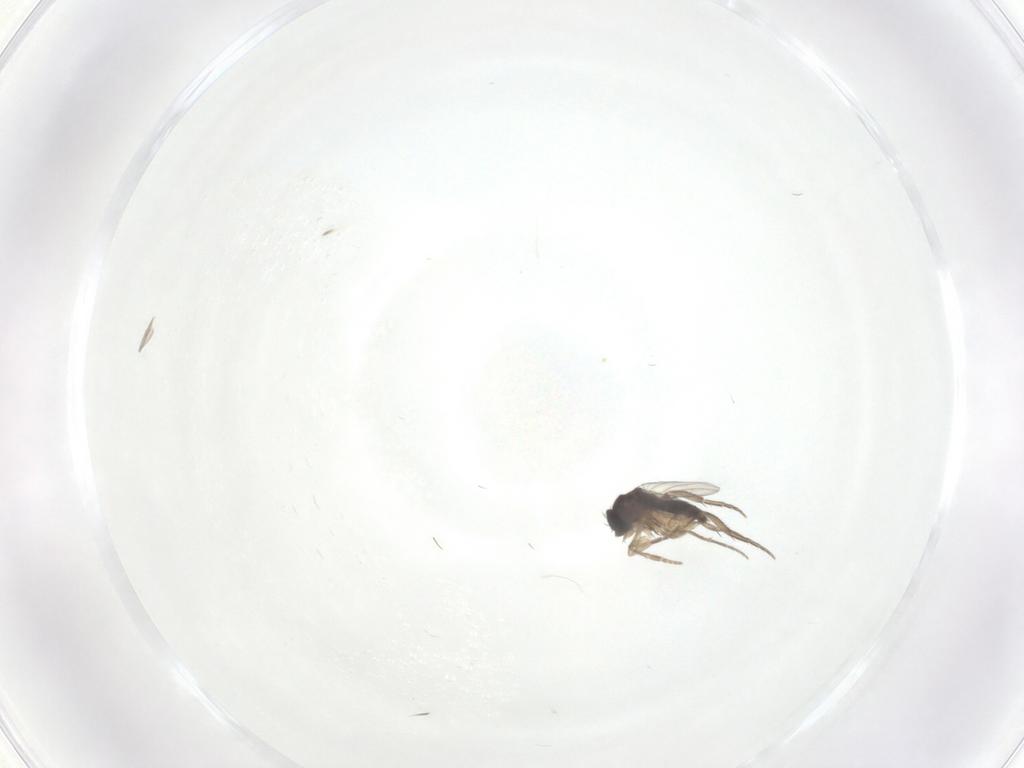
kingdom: Animalia
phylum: Arthropoda
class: Insecta
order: Diptera
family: Phoridae
